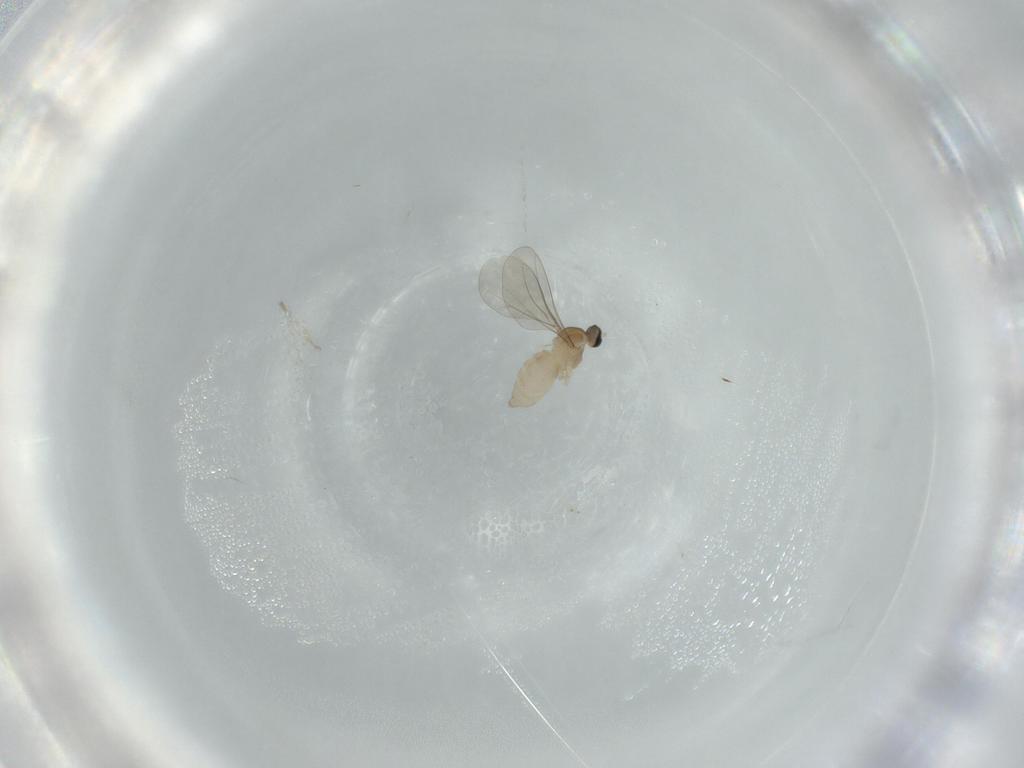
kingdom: Animalia
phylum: Arthropoda
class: Insecta
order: Diptera
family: Cecidomyiidae
